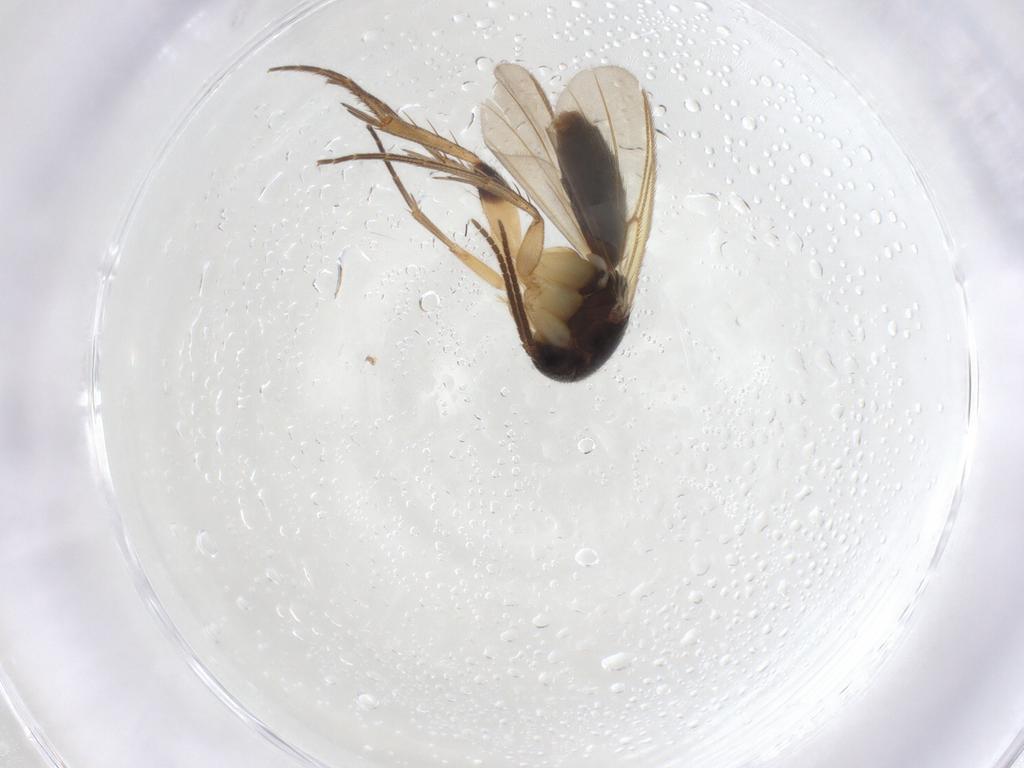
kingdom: Animalia
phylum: Arthropoda
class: Insecta
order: Diptera
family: Mycetophilidae
